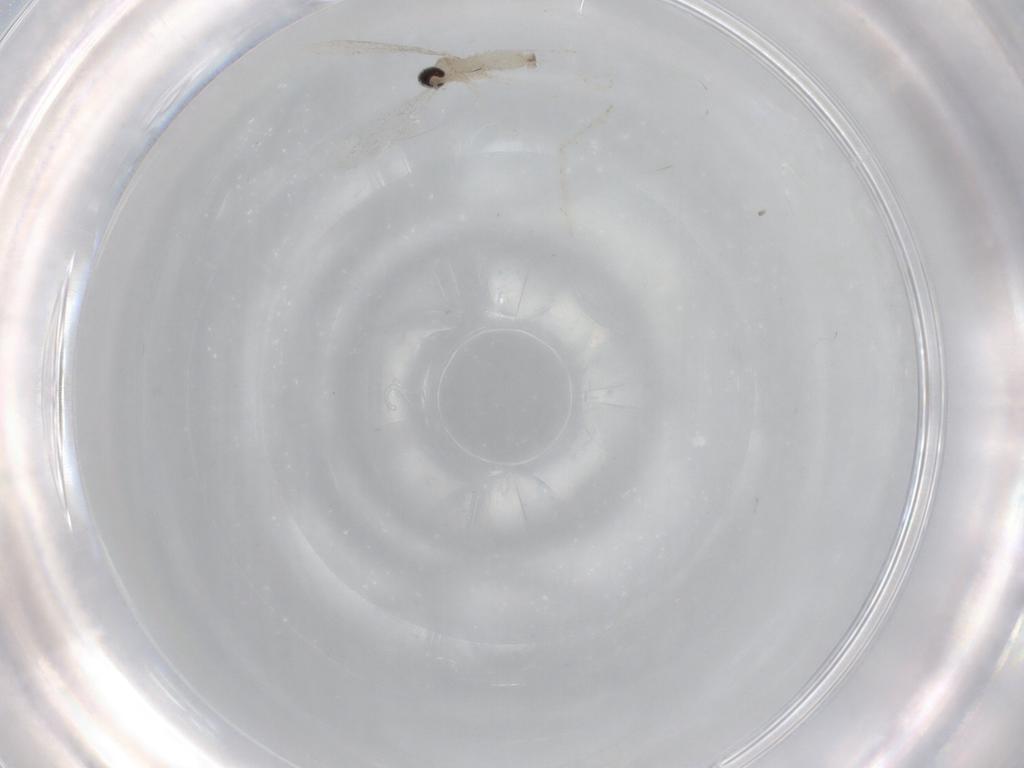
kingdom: Animalia
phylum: Arthropoda
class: Insecta
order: Diptera
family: Cecidomyiidae
